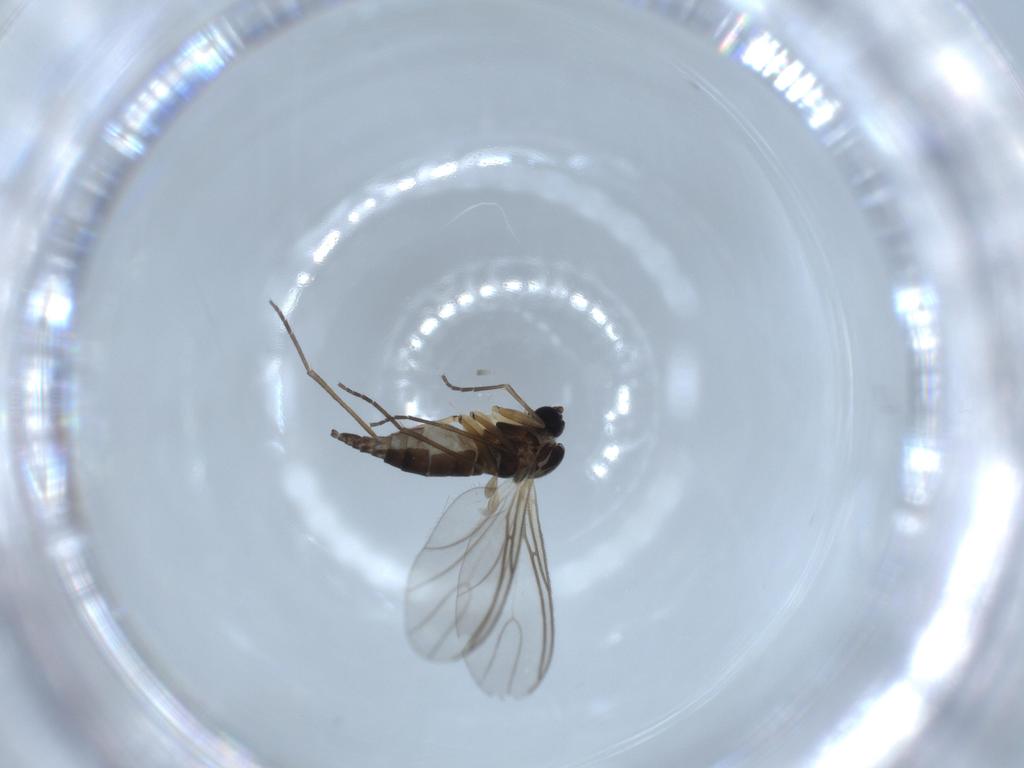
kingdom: Animalia
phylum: Arthropoda
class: Insecta
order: Diptera
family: Sciaridae
